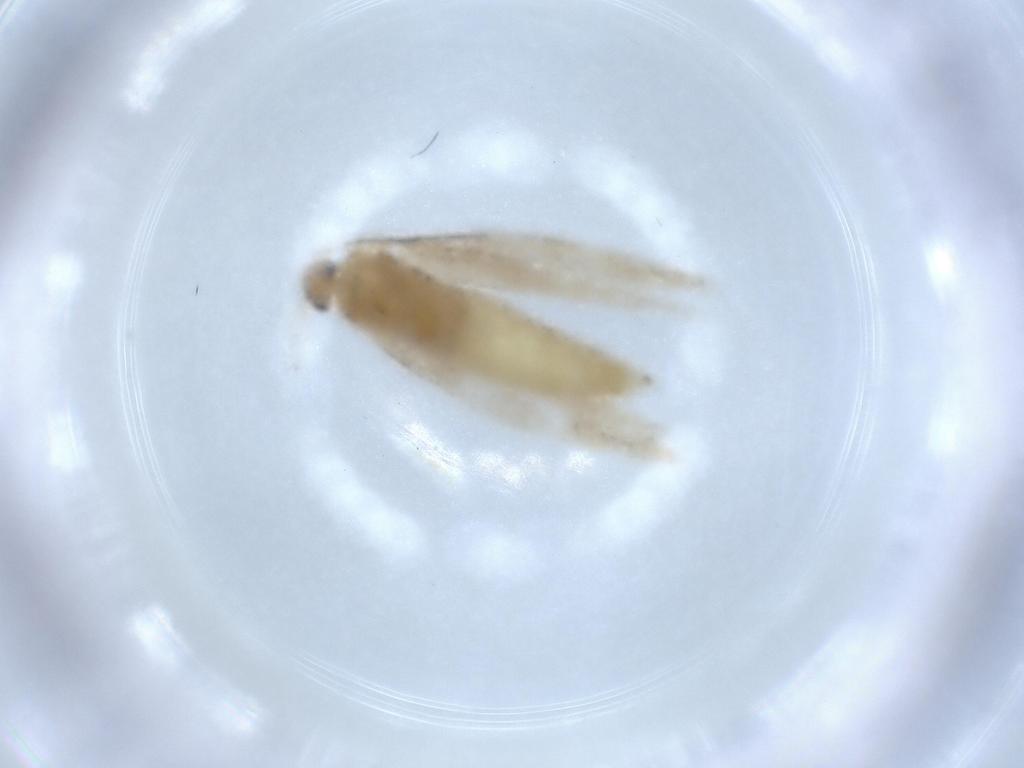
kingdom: Animalia
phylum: Arthropoda
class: Insecta
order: Lepidoptera
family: Gracillariidae
